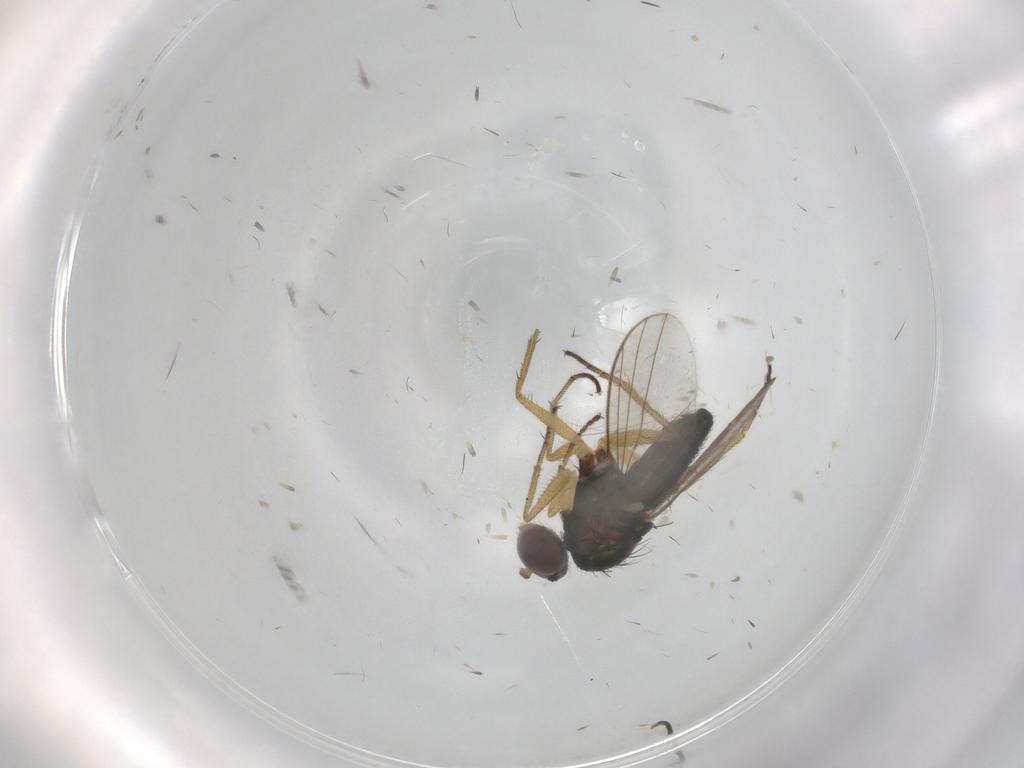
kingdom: Animalia
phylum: Arthropoda
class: Insecta
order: Diptera
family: Dolichopodidae
